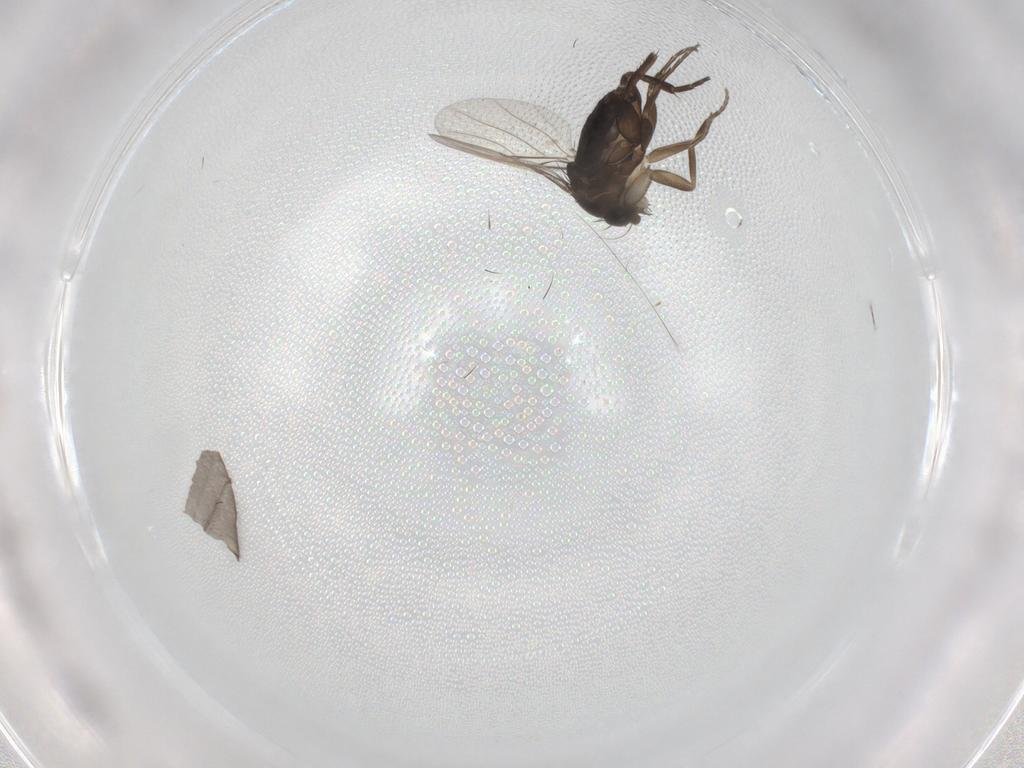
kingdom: Animalia
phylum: Arthropoda
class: Insecta
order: Diptera
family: Phoridae
